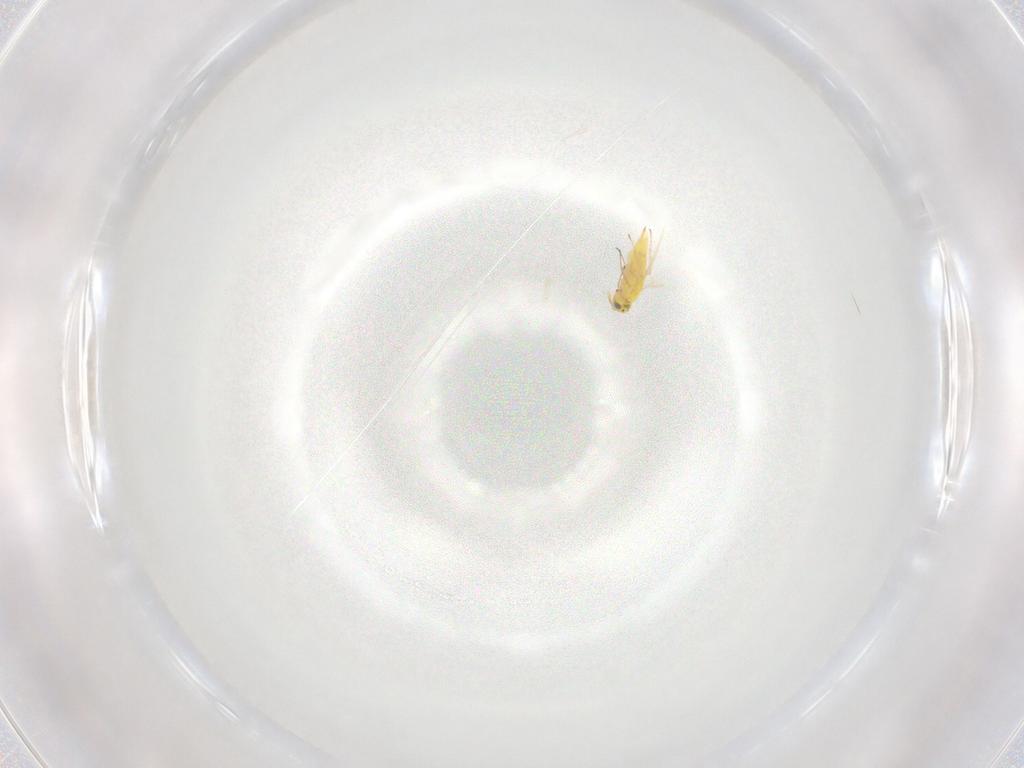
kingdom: Animalia
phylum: Arthropoda
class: Insecta
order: Hymenoptera
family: Aphelinidae
